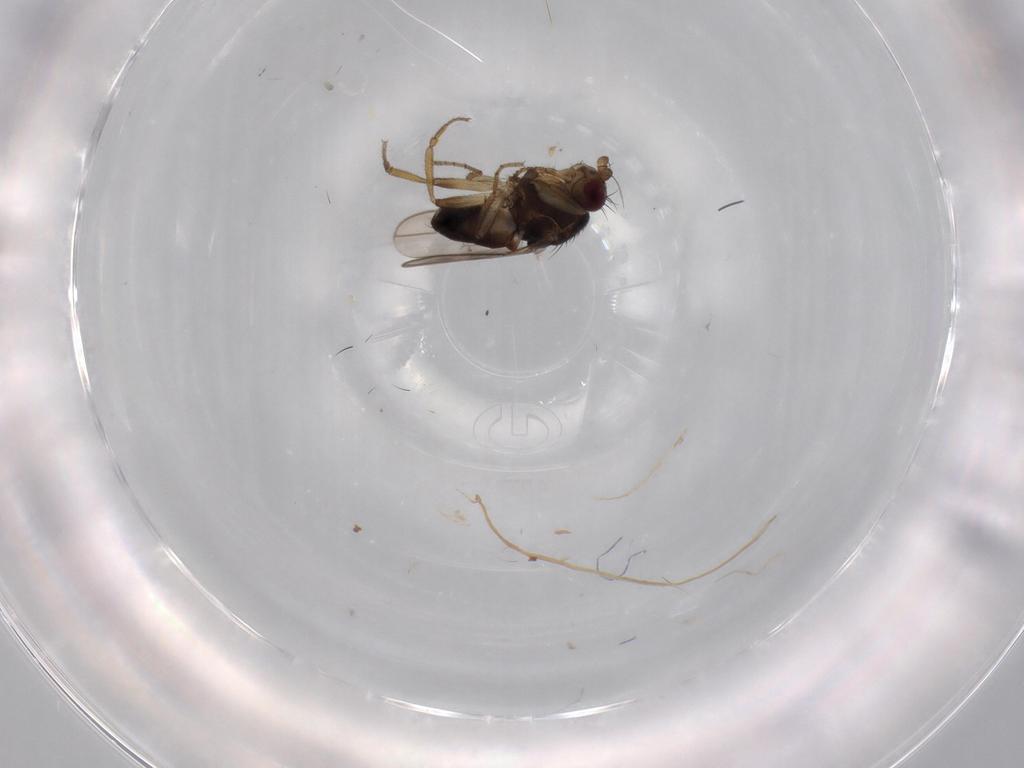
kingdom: Animalia
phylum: Arthropoda
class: Insecta
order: Diptera
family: Sphaeroceridae
